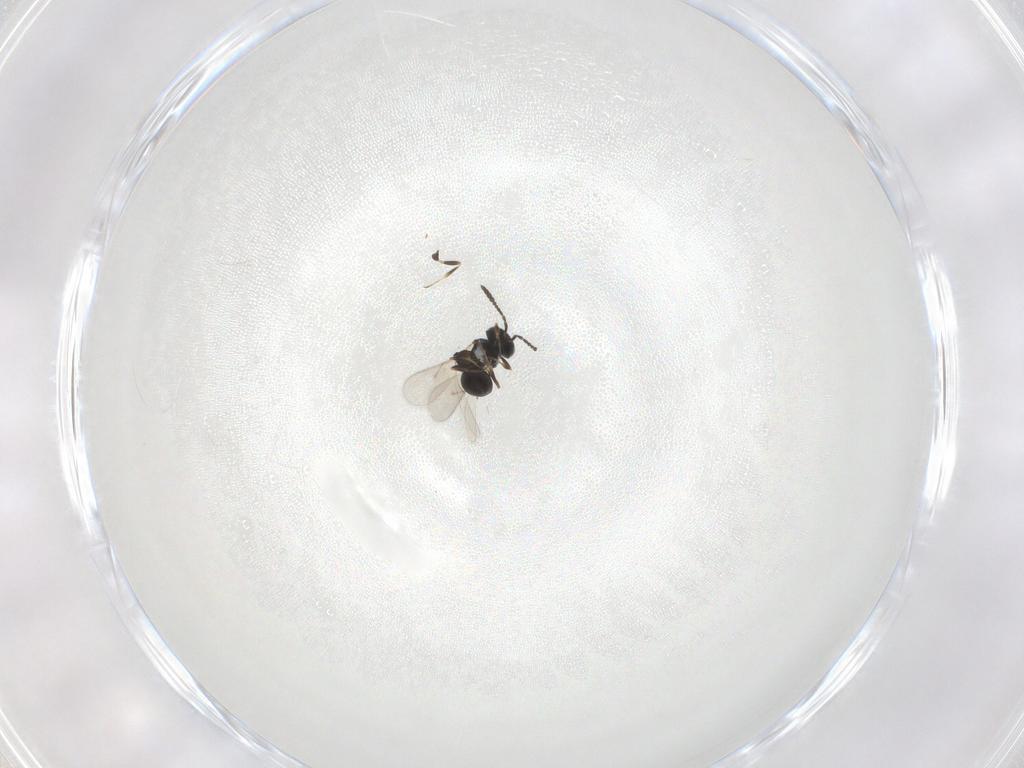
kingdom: Animalia
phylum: Arthropoda
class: Insecta
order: Hymenoptera
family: Scelionidae
